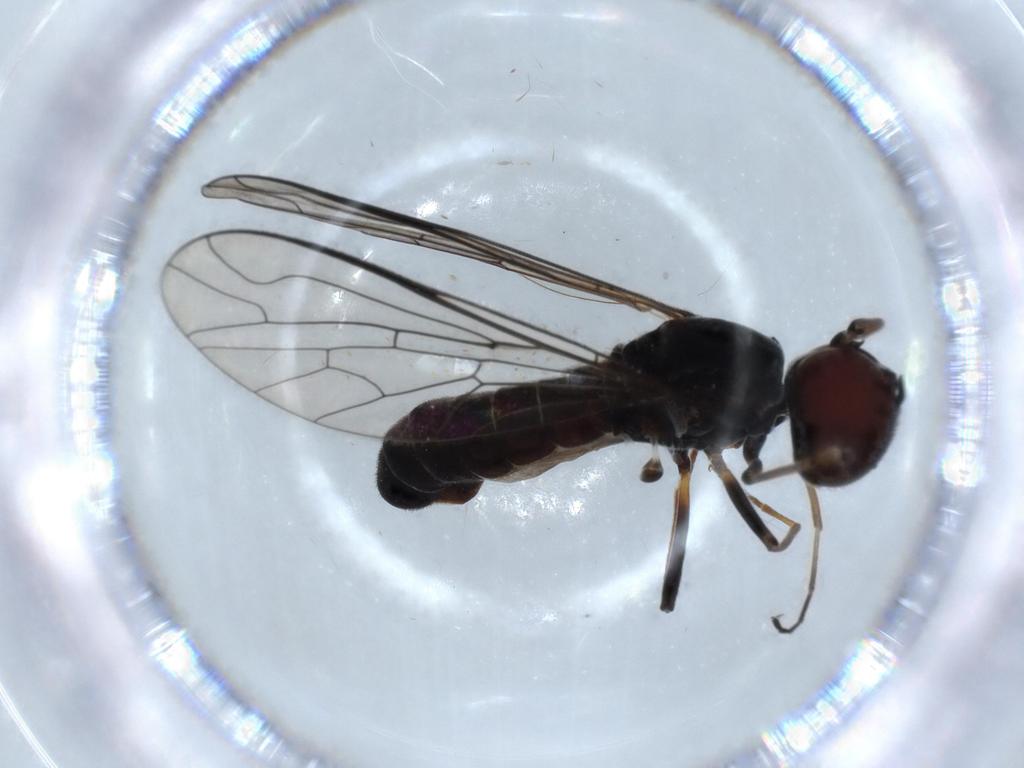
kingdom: Animalia
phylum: Arthropoda
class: Insecta
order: Diptera
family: Bombyliidae
